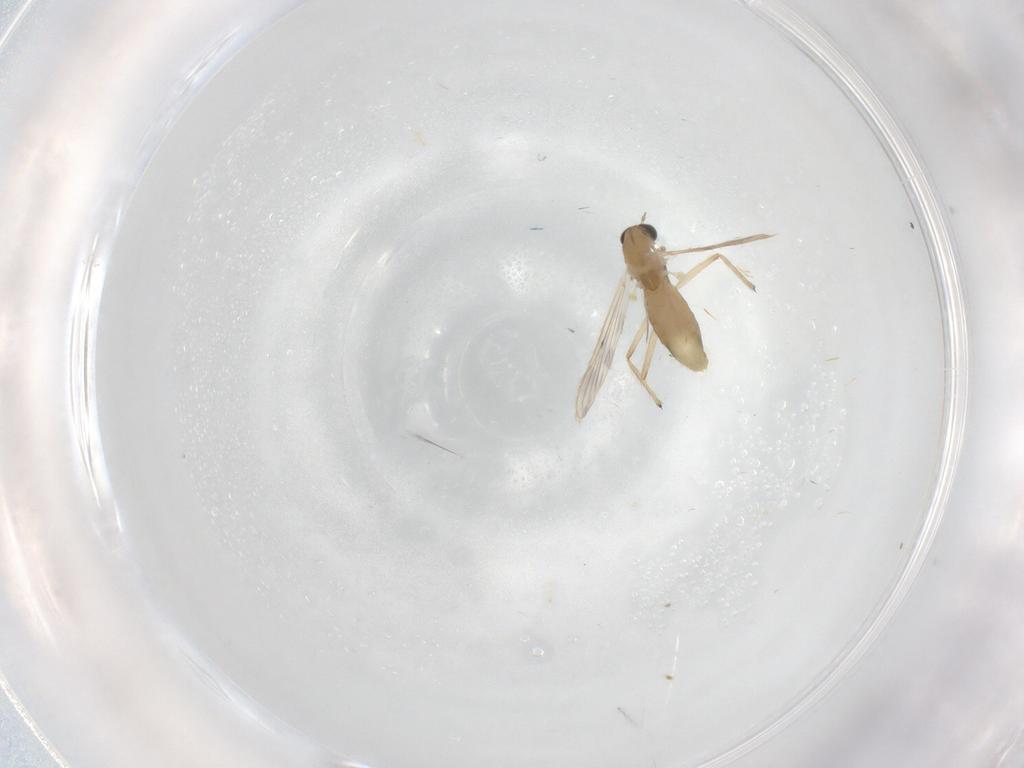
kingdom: Animalia
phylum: Arthropoda
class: Insecta
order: Diptera
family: Chironomidae
